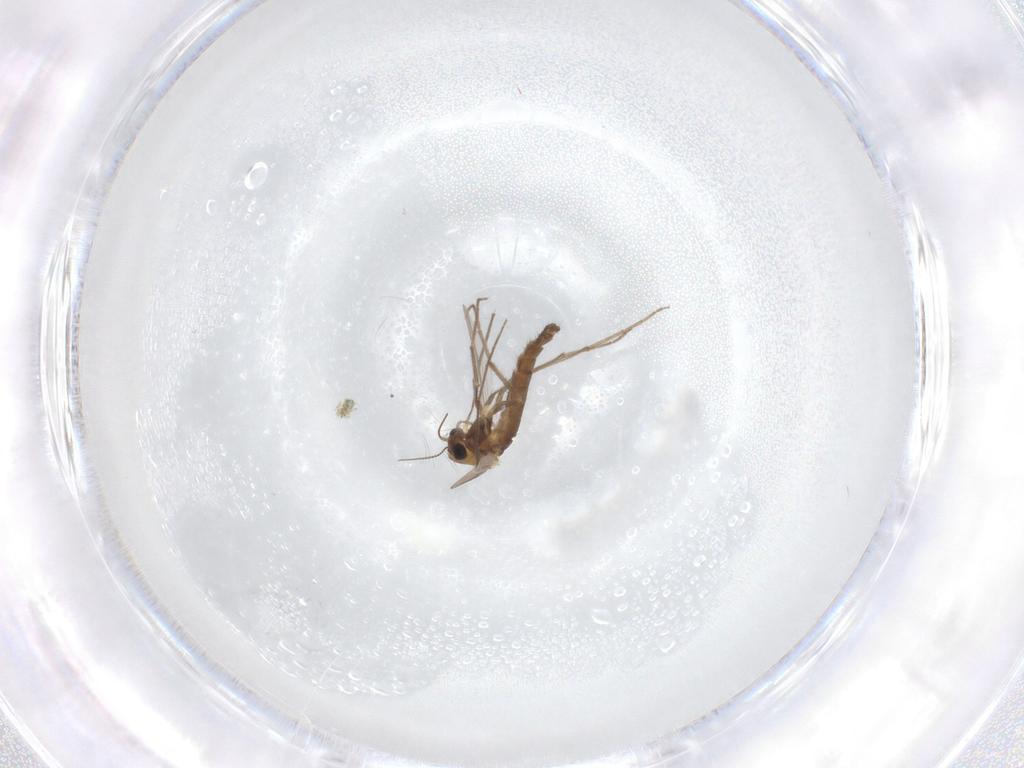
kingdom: Animalia
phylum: Arthropoda
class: Insecta
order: Diptera
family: Chironomidae
